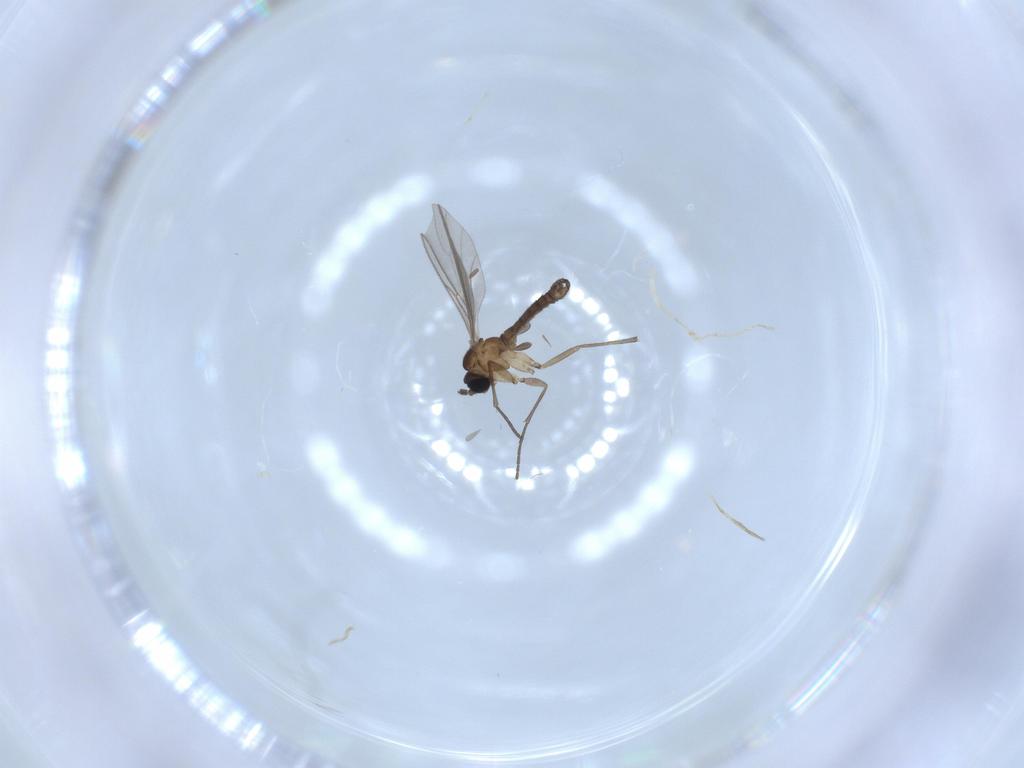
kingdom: Animalia
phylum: Arthropoda
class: Insecta
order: Diptera
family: Sciaridae
